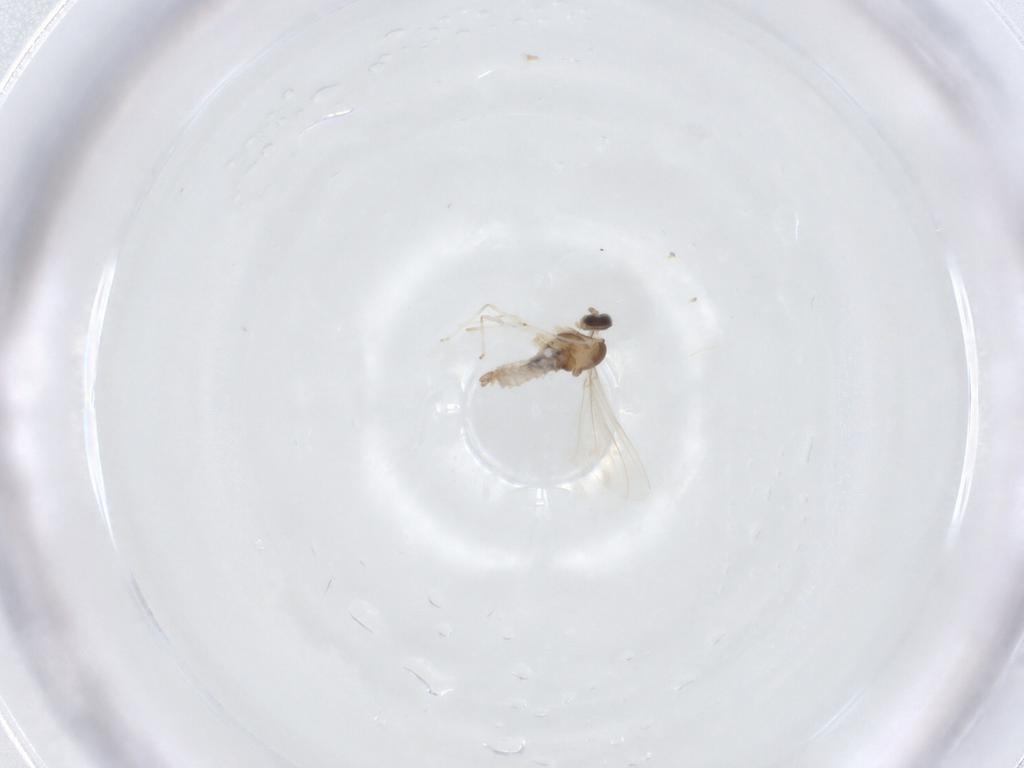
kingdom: Animalia
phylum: Arthropoda
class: Insecta
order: Diptera
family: Cecidomyiidae
